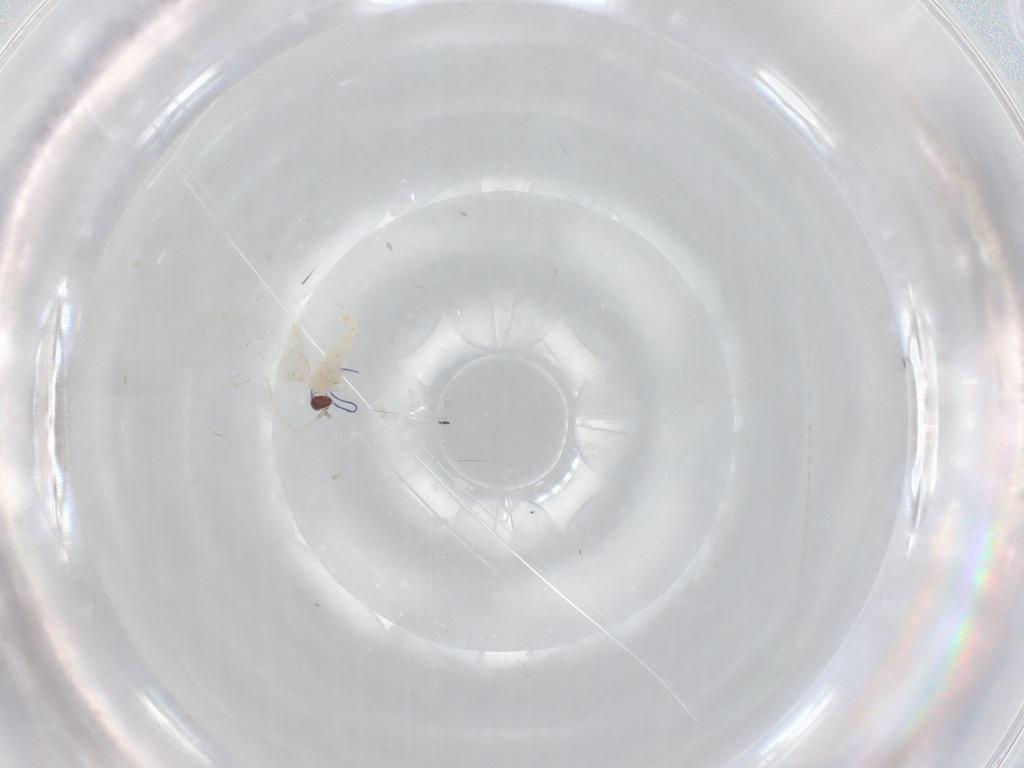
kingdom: Animalia
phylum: Arthropoda
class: Insecta
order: Diptera
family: Cecidomyiidae
